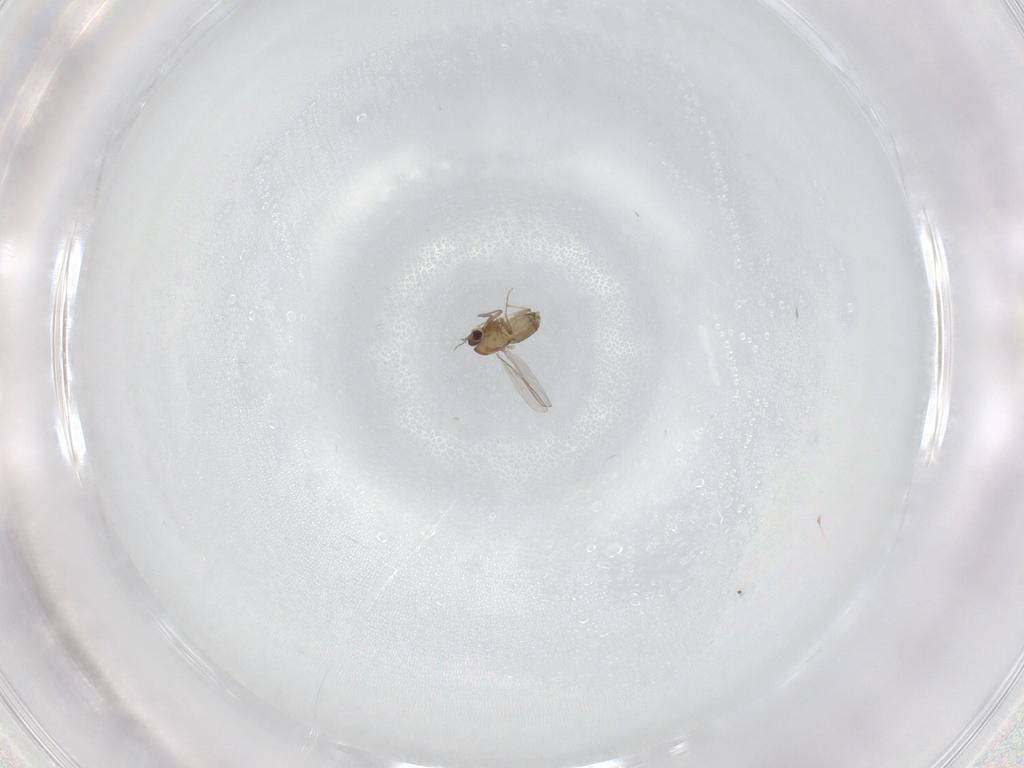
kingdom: Animalia
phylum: Arthropoda
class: Insecta
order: Diptera
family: Chironomidae
